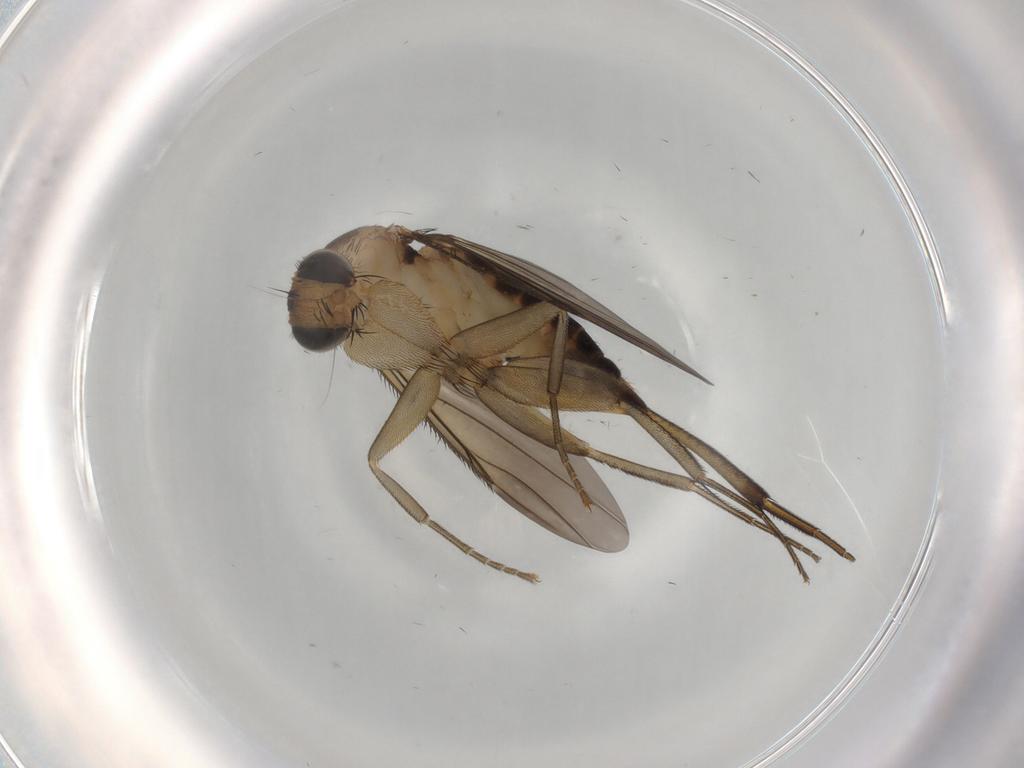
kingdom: Animalia
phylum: Arthropoda
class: Insecta
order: Diptera
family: Phoridae
